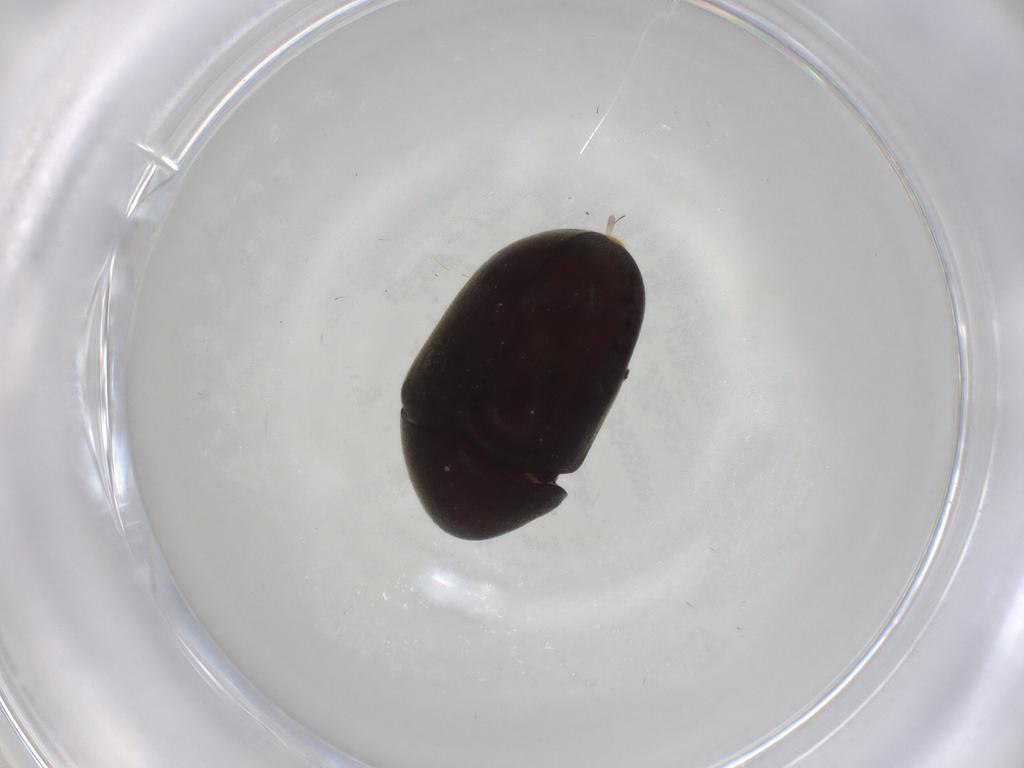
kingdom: Animalia
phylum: Arthropoda
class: Insecta
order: Coleoptera
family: Ptinidae
